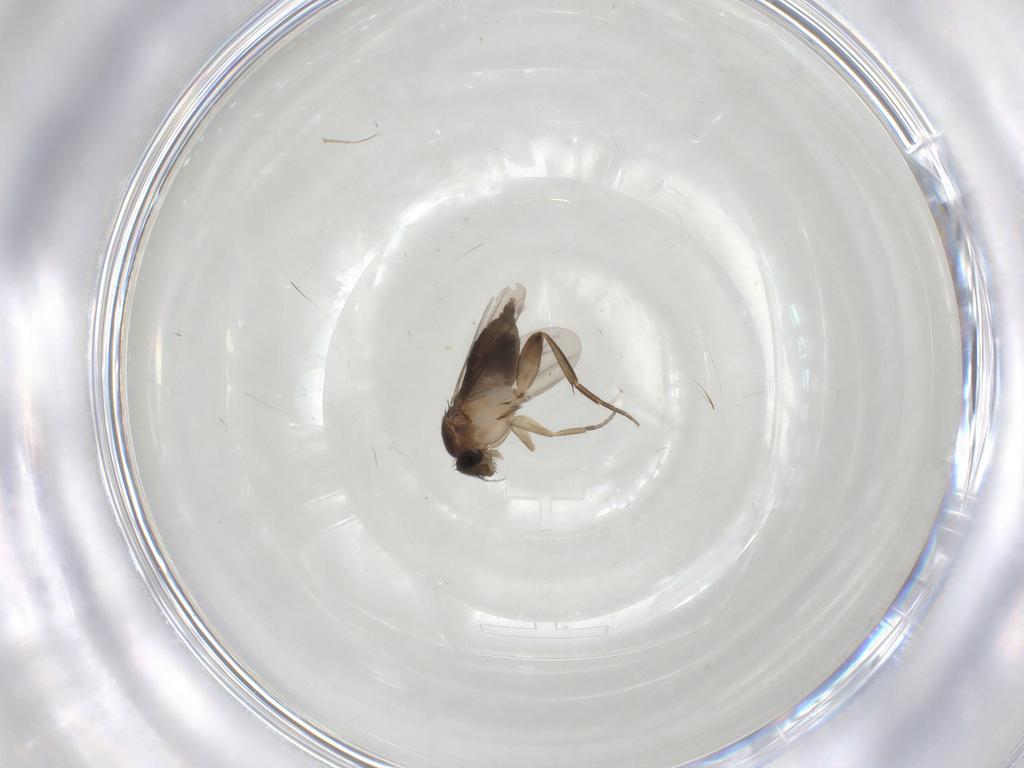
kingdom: Animalia
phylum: Arthropoda
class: Insecta
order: Diptera
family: Phoridae
